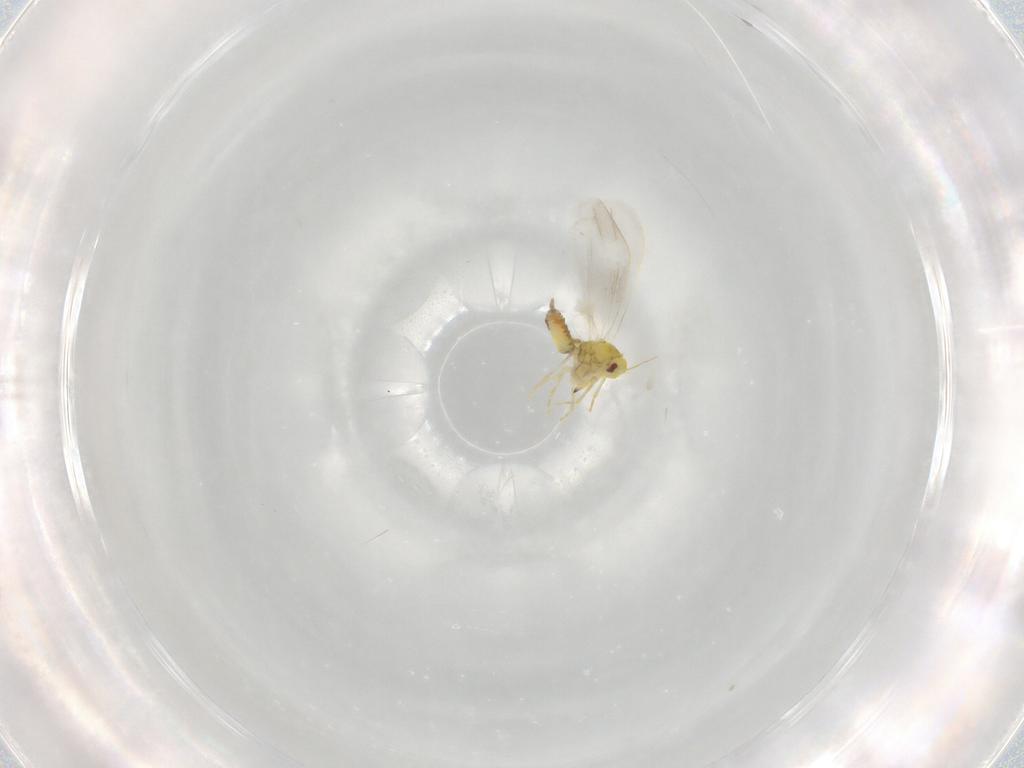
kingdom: Animalia
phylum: Arthropoda
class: Insecta
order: Hemiptera
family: Aleyrodidae
